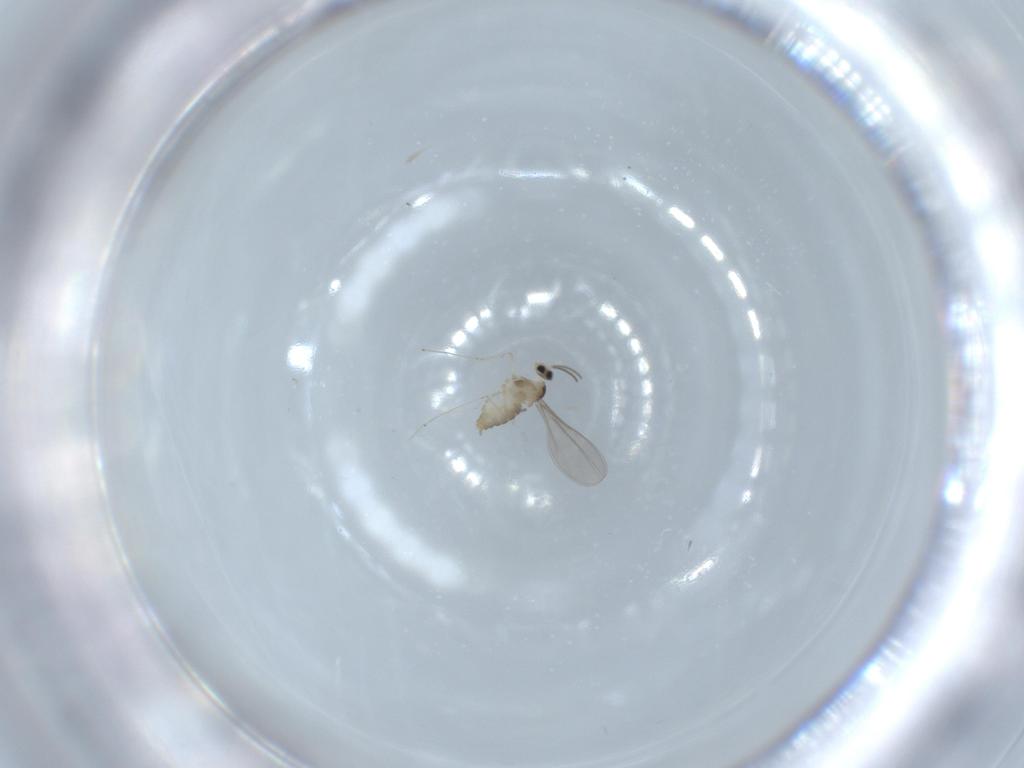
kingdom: Animalia
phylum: Arthropoda
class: Insecta
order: Diptera
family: Cecidomyiidae
